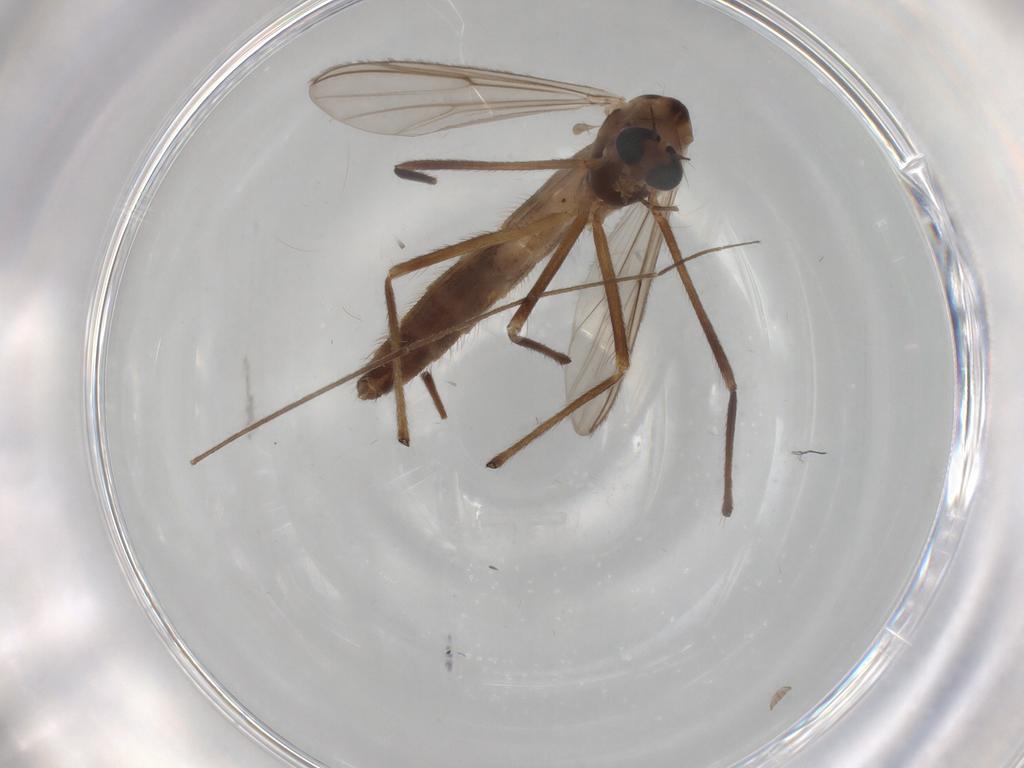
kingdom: Animalia
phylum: Arthropoda
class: Insecta
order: Diptera
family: Chironomidae
